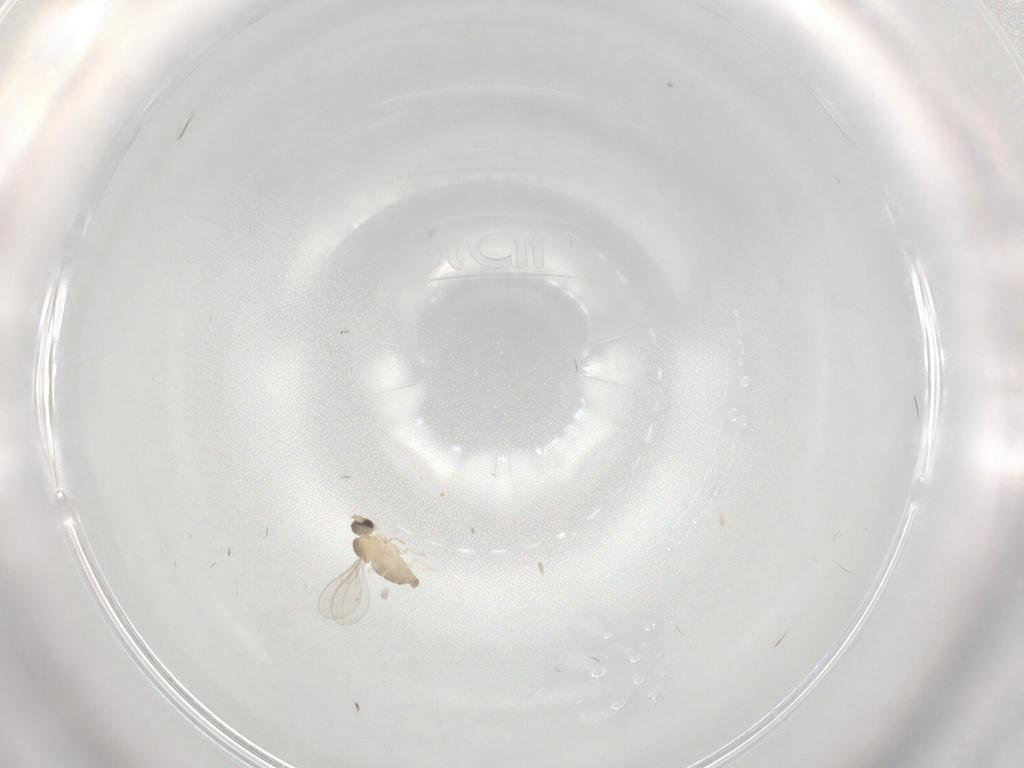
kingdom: Animalia
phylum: Arthropoda
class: Insecta
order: Diptera
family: Cecidomyiidae
